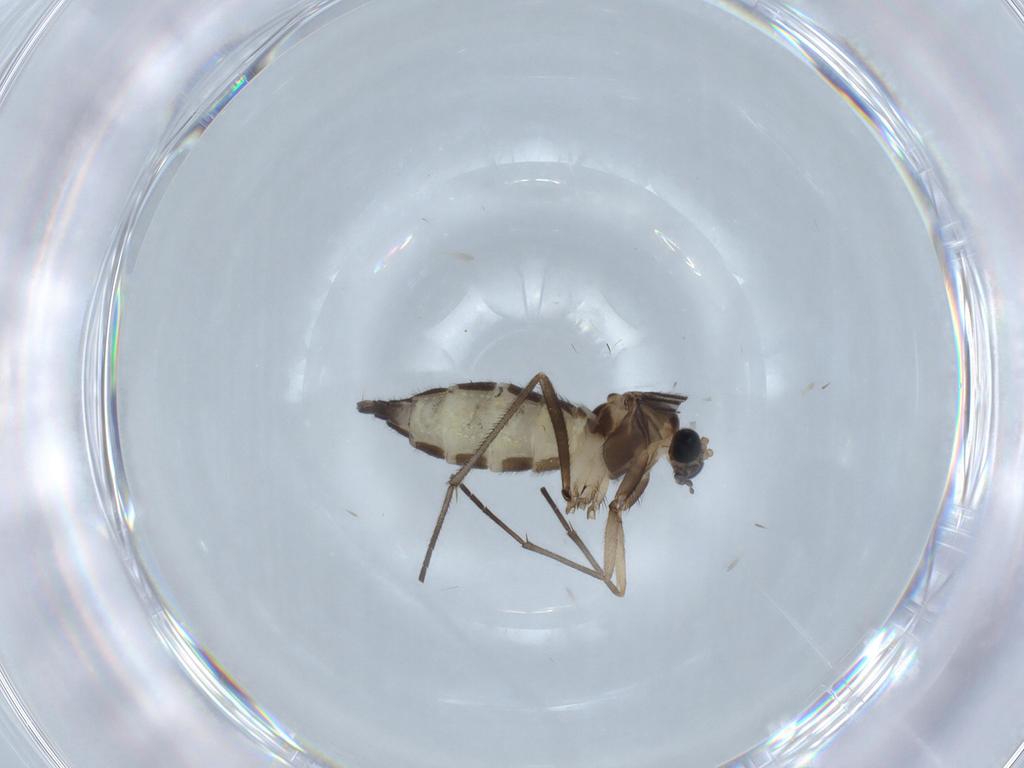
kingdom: Animalia
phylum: Arthropoda
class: Insecta
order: Diptera
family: Sciaridae
